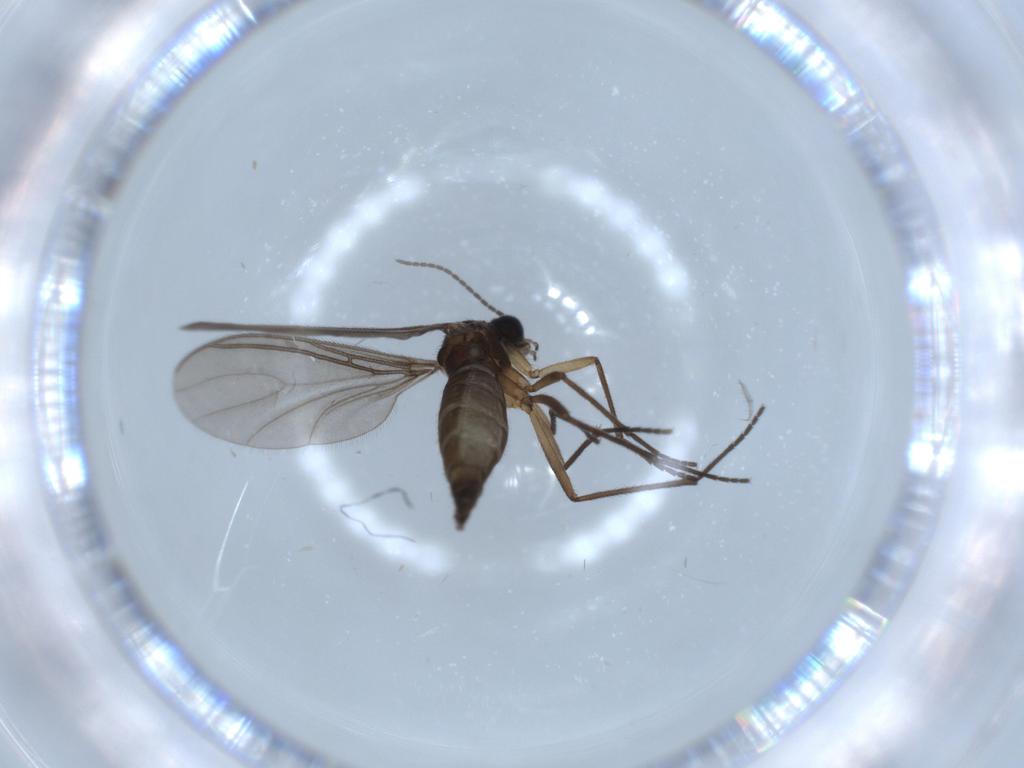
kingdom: Animalia
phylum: Arthropoda
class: Insecta
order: Diptera
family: Sciaridae
